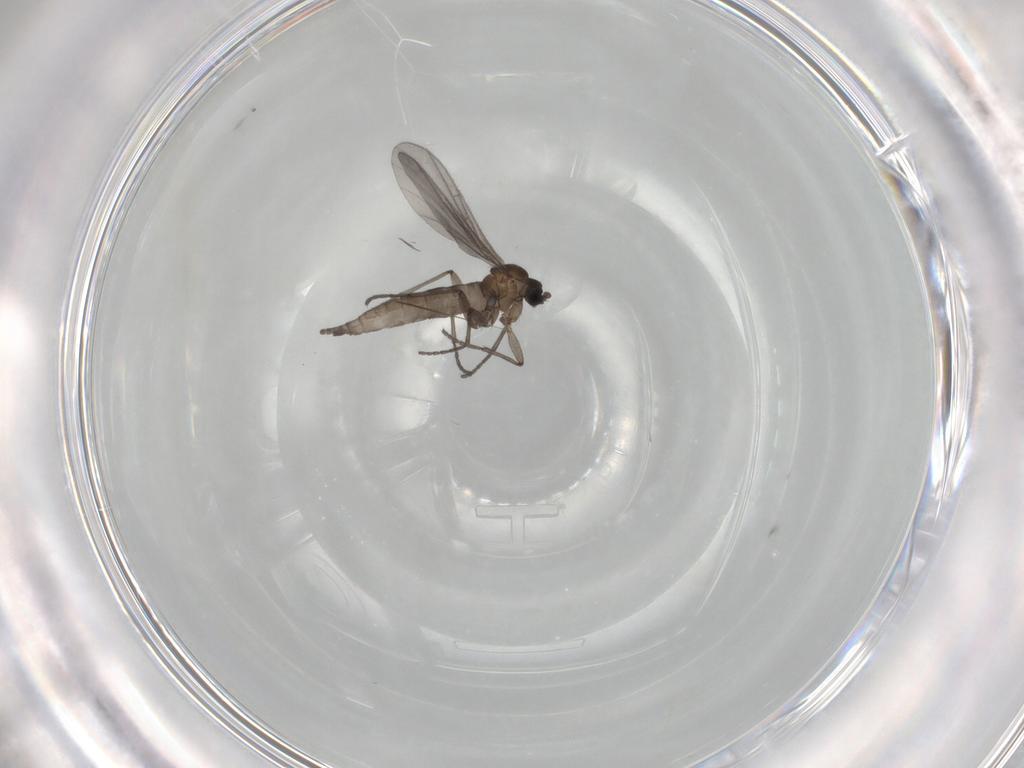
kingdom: Animalia
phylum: Arthropoda
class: Insecta
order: Diptera
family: Sciaridae
